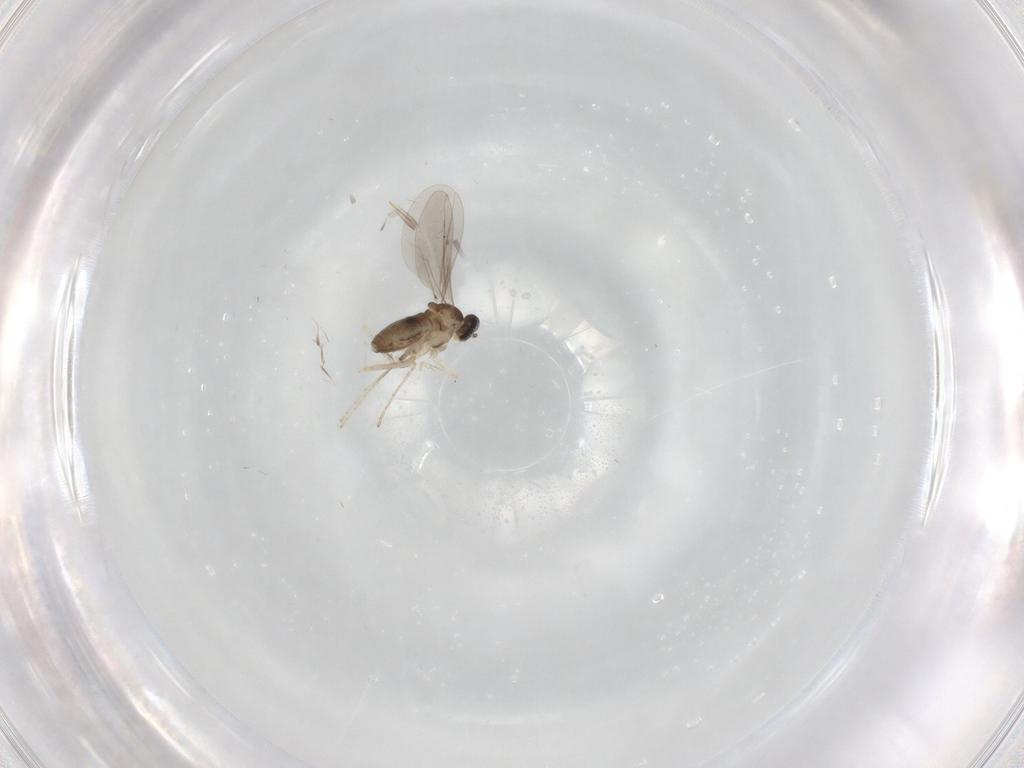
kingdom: Animalia
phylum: Arthropoda
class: Insecta
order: Diptera
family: Cecidomyiidae
